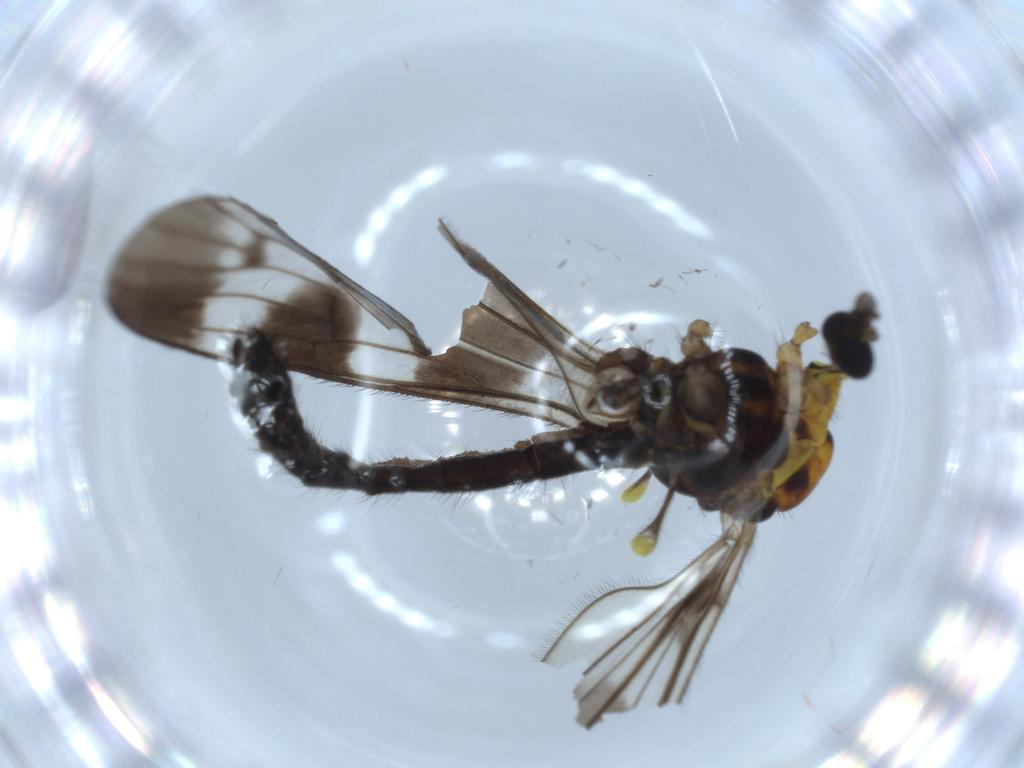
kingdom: Animalia
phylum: Arthropoda
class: Insecta
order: Diptera
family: Limoniidae
